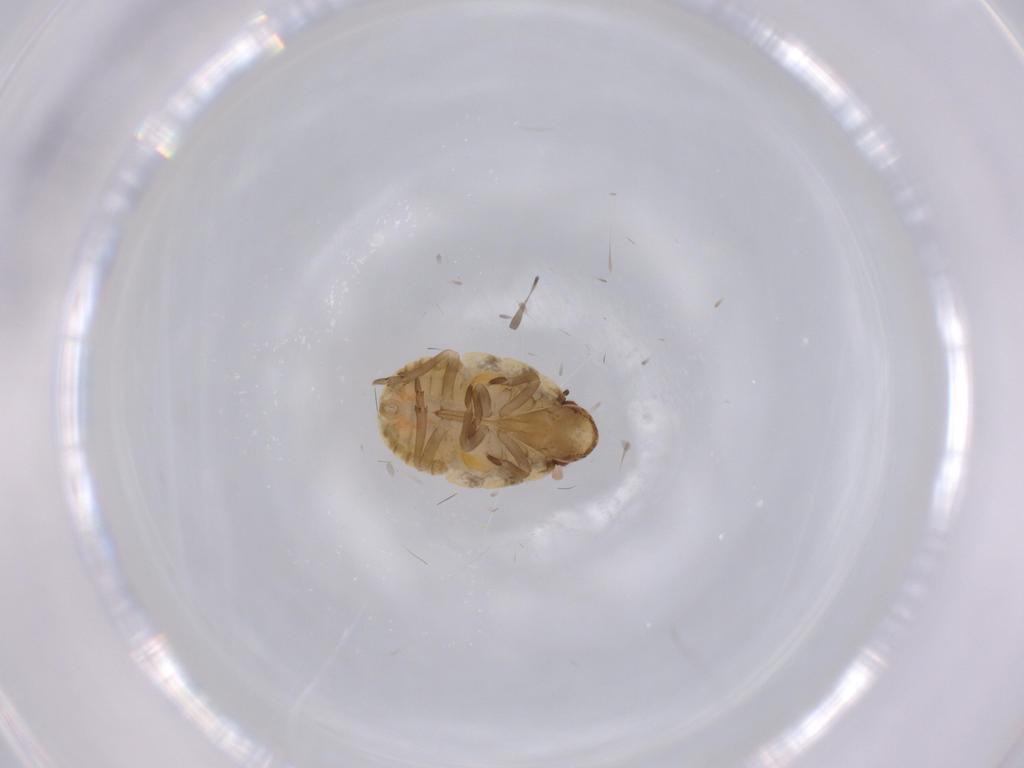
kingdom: Animalia
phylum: Arthropoda
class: Insecta
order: Hemiptera
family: Flatidae
